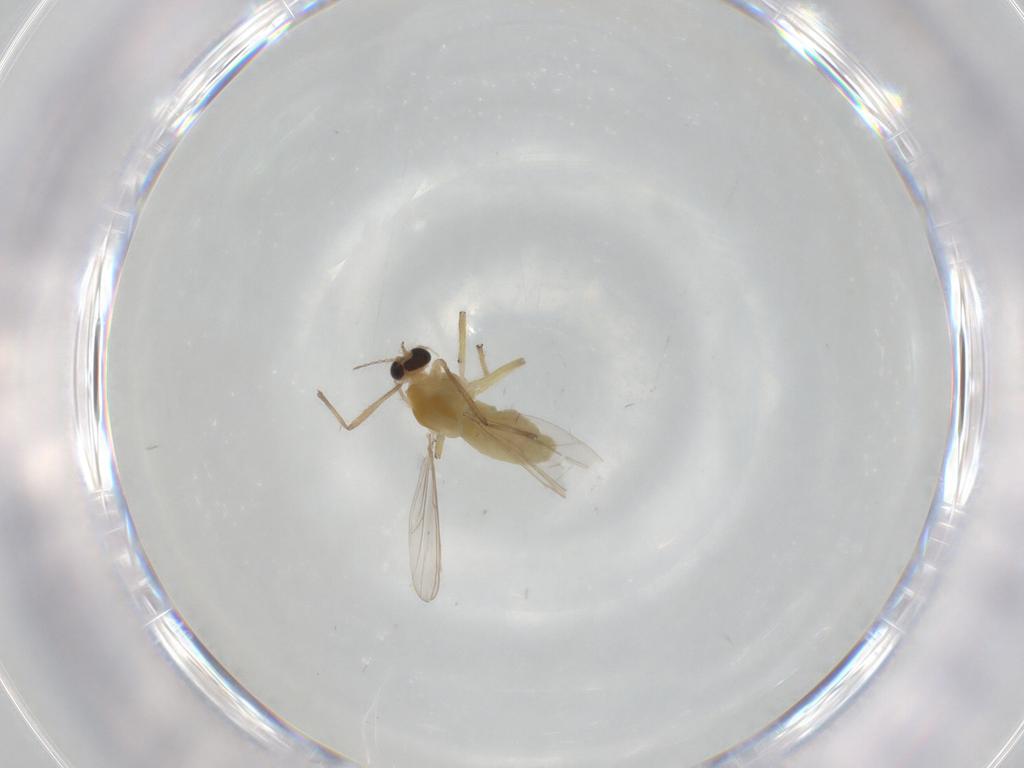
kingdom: Animalia
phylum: Arthropoda
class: Insecta
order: Diptera
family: Chironomidae
